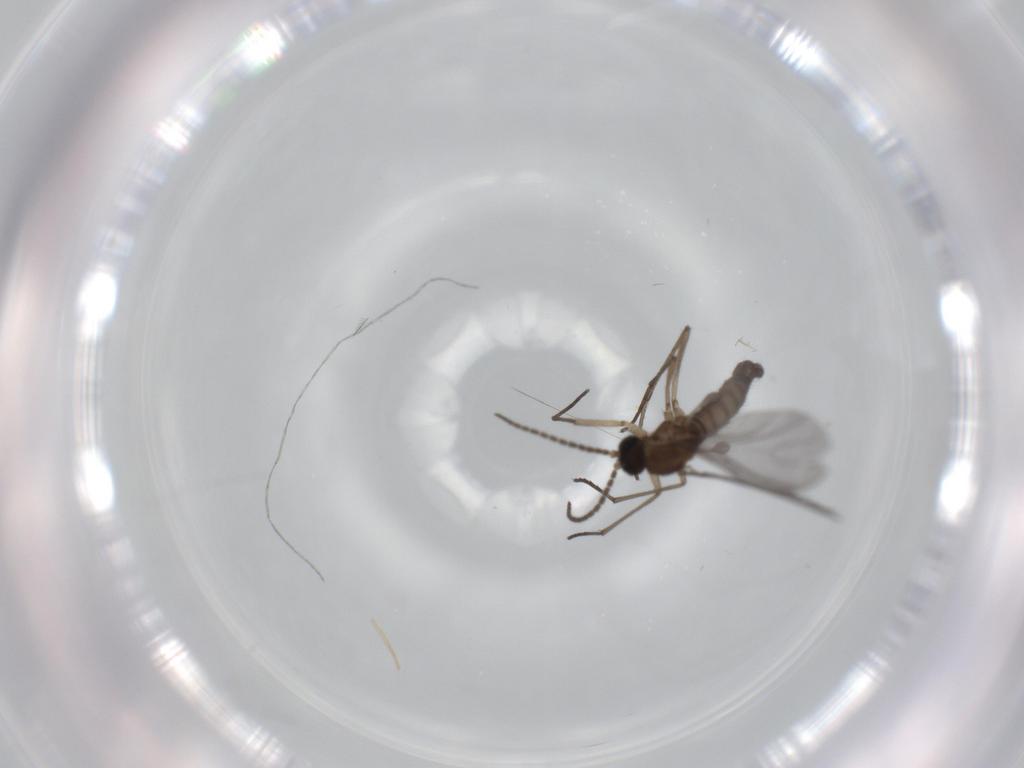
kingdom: Animalia
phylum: Arthropoda
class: Insecta
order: Diptera
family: Sciaridae
